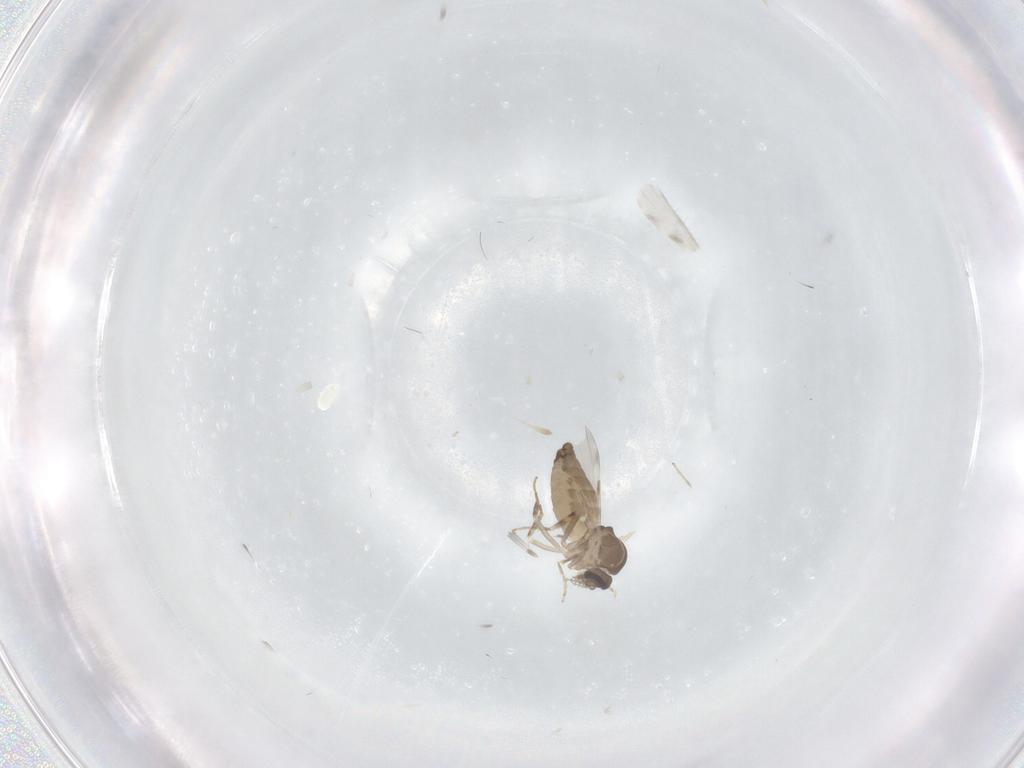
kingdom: Animalia
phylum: Arthropoda
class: Insecta
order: Diptera
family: Ceratopogonidae
